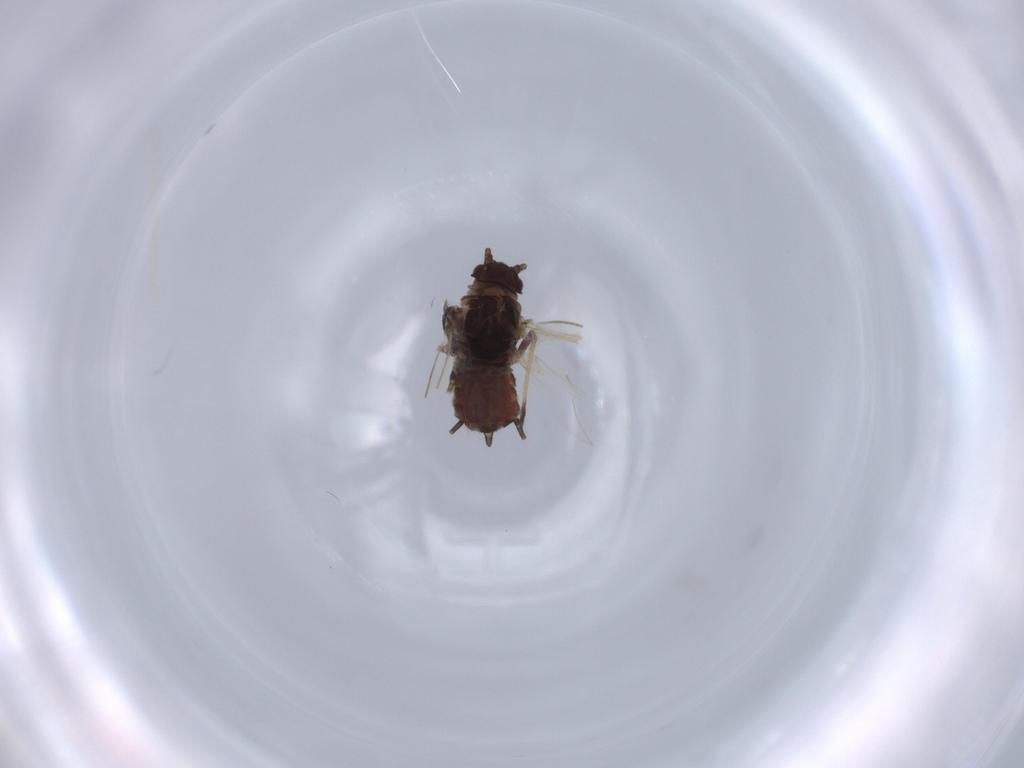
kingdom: Animalia
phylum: Arthropoda
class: Insecta
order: Hemiptera
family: Aphididae
